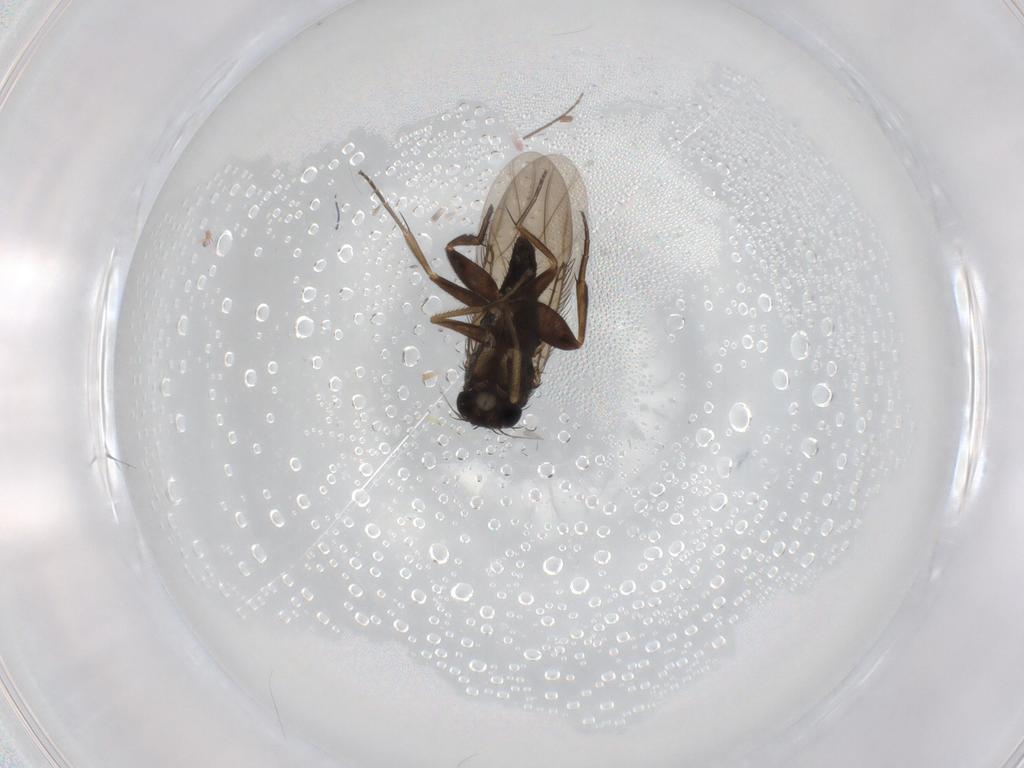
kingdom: Animalia
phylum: Arthropoda
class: Insecta
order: Diptera
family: Phoridae
